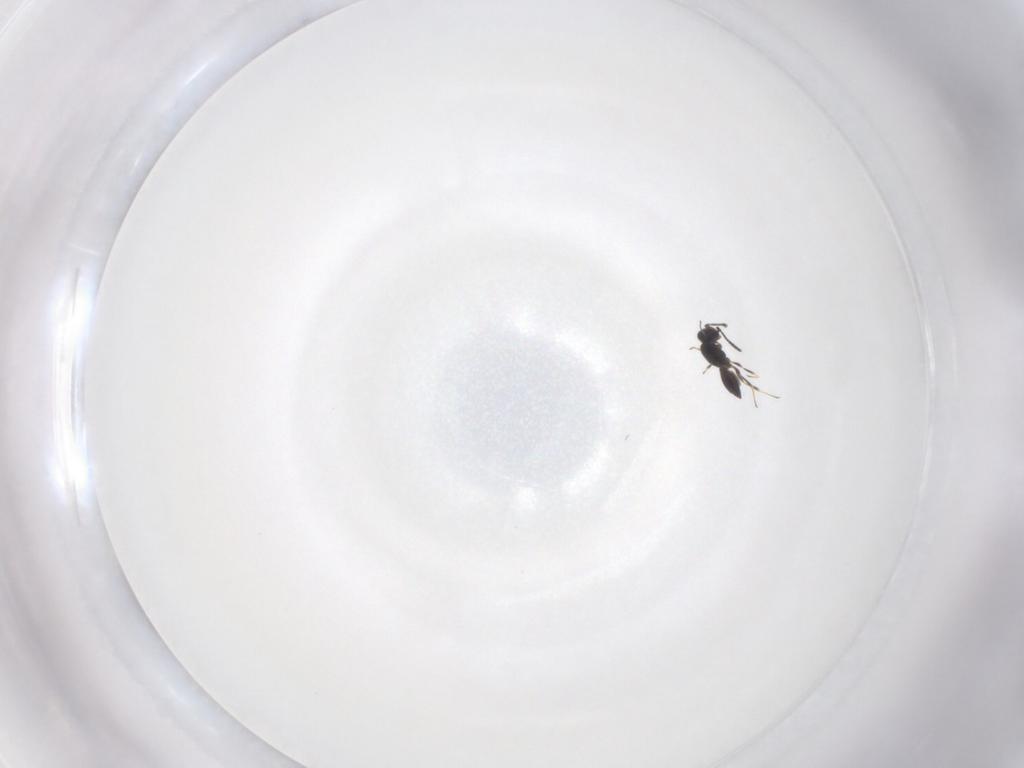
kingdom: Animalia
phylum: Arthropoda
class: Insecta
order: Hymenoptera
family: Scelionidae
